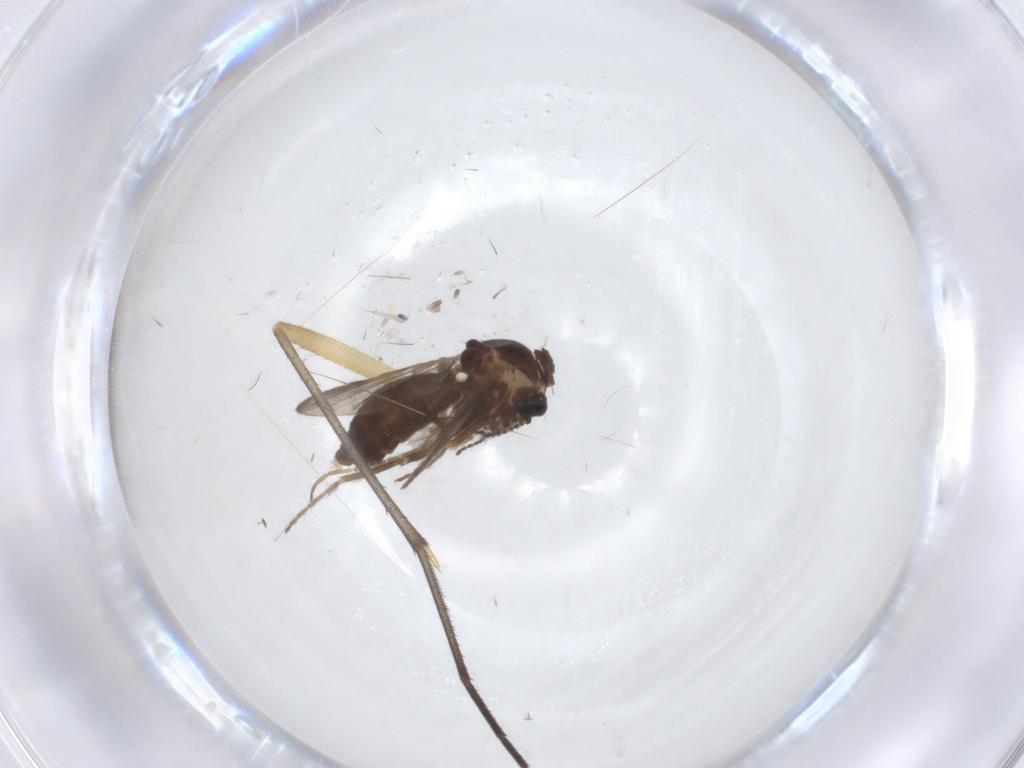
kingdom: Animalia
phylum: Arthropoda
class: Insecta
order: Diptera
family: Ceratopogonidae
